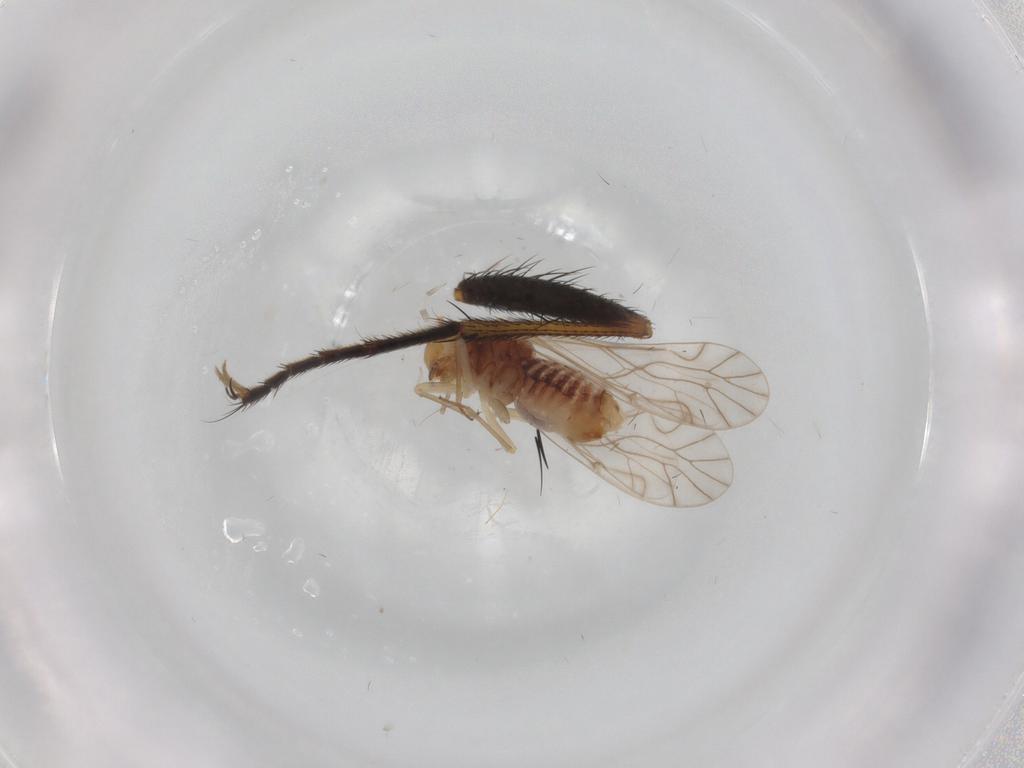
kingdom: Animalia
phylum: Arthropoda
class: Insecta
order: Psocodea
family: Lachesillidae
